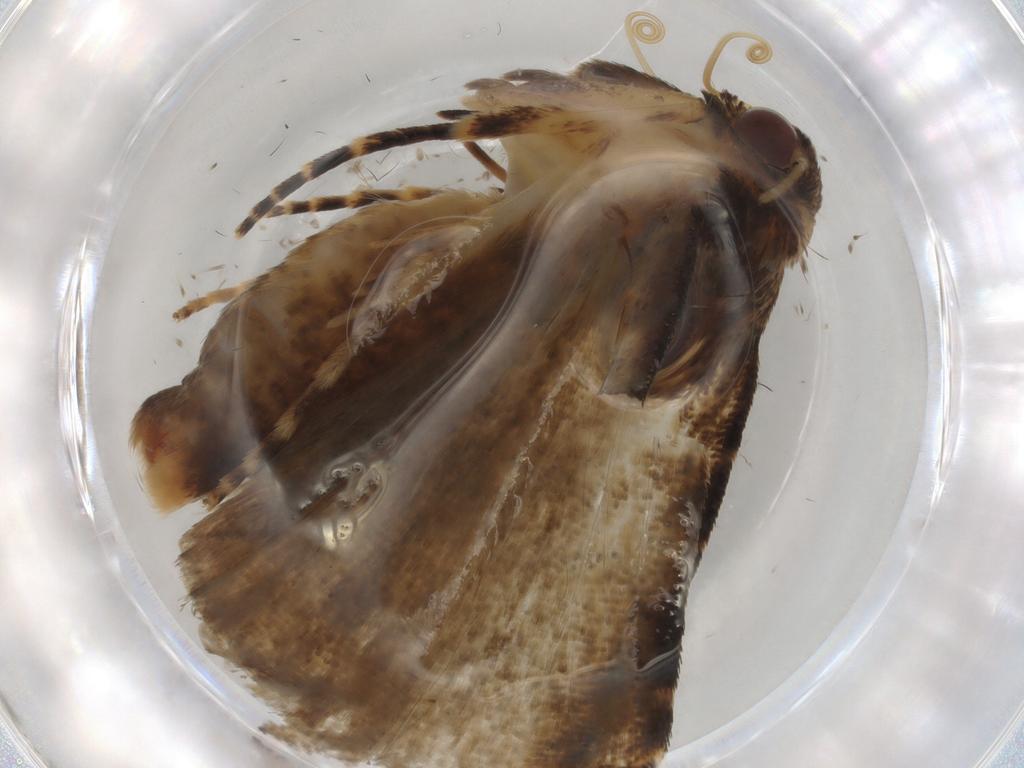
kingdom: Animalia
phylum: Arthropoda
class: Insecta
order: Lepidoptera
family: Erebidae
